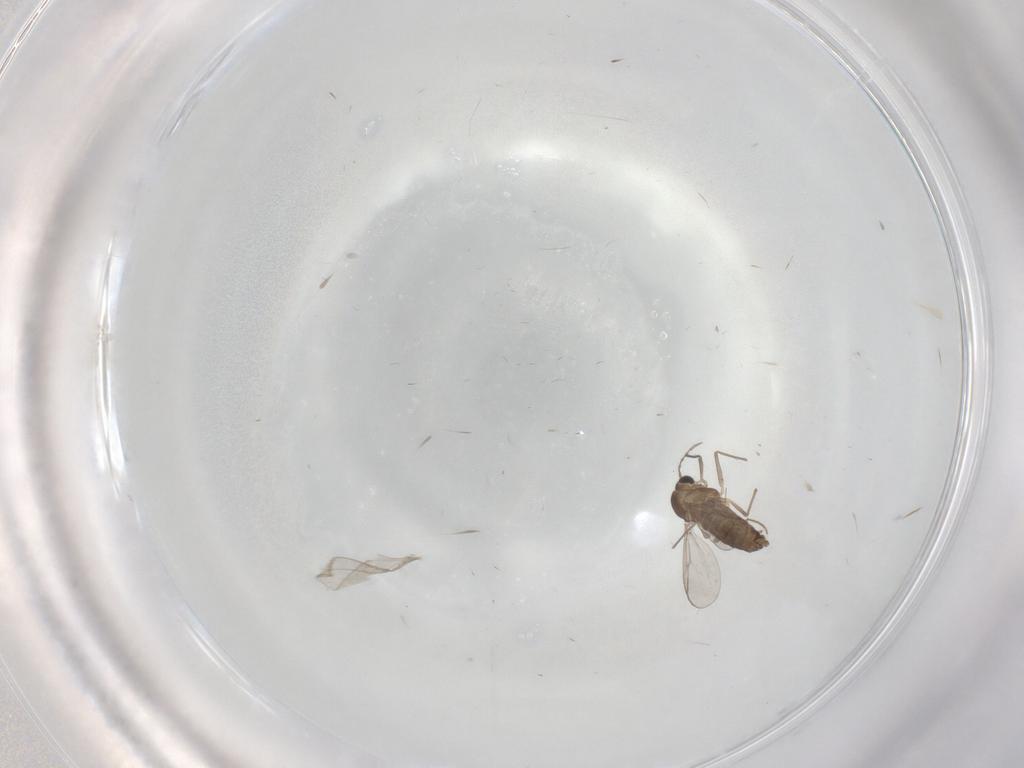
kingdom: Animalia
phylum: Arthropoda
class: Insecta
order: Diptera
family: Chironomidae
